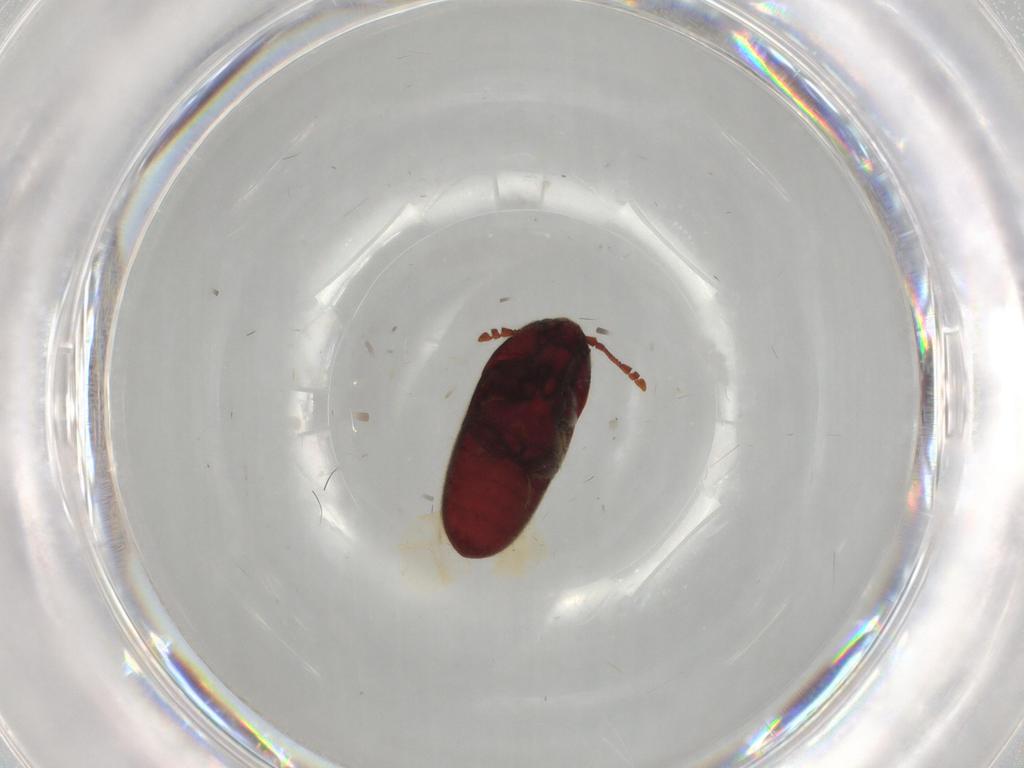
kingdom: Animalia
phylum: Arthropoda
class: Insecta
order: Coleoptera
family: Throscidae
